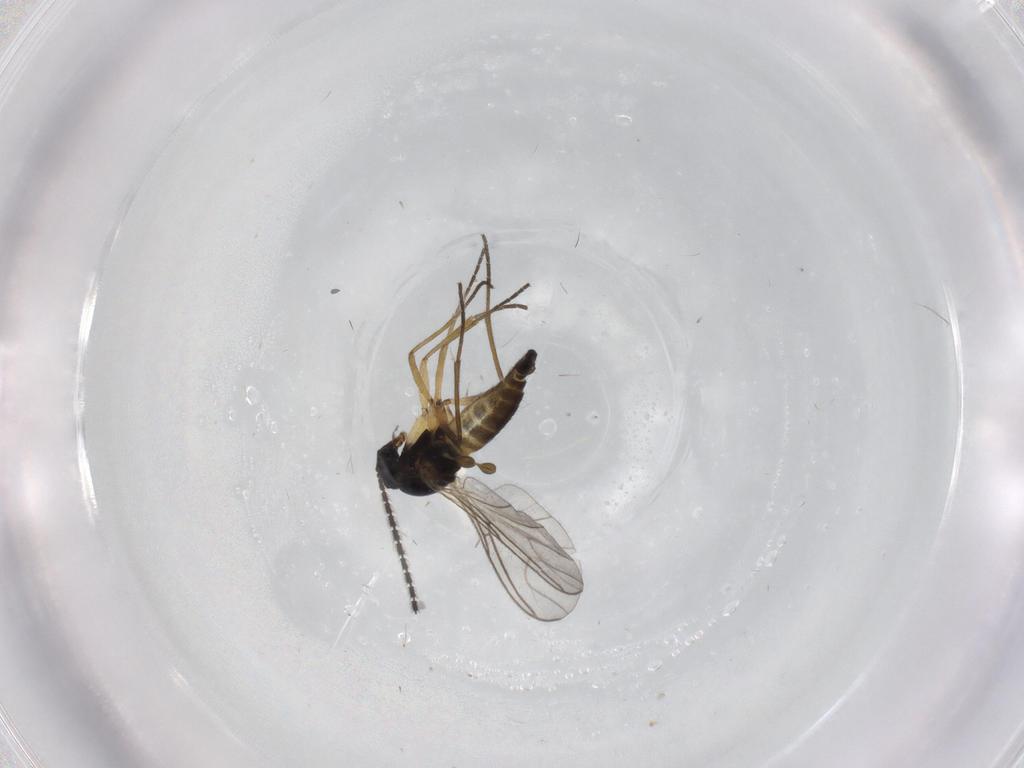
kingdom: Animalia
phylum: Arthropoda
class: Insecta
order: Diptera
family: Sciaridae
